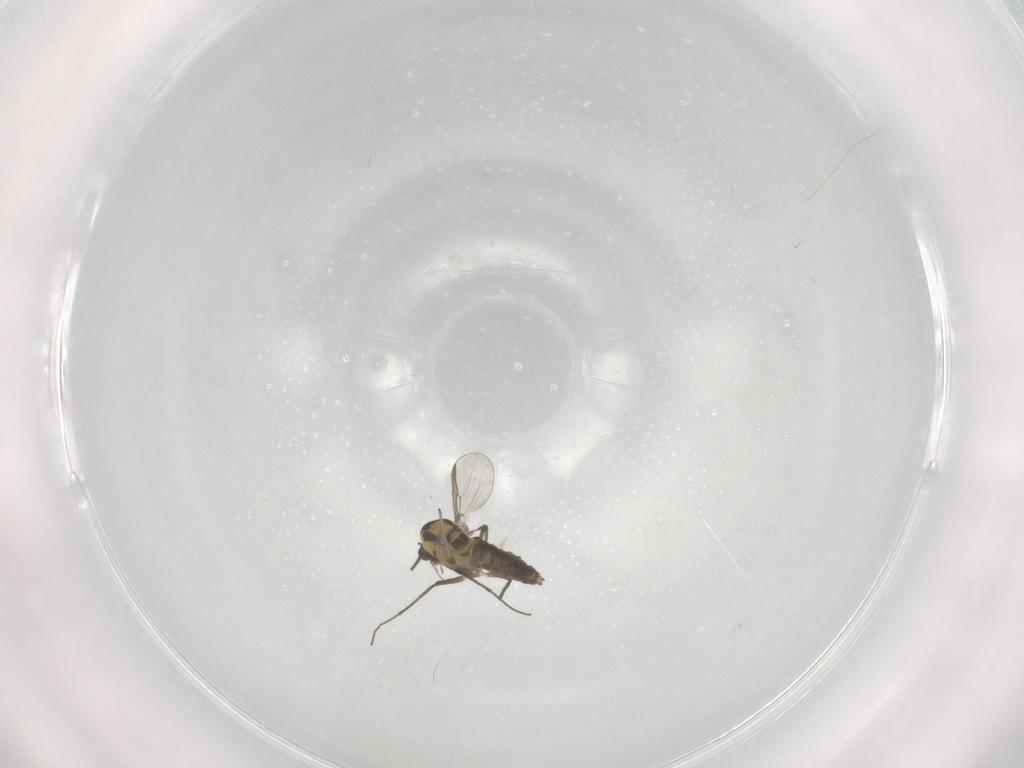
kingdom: Animalia
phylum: Arthropoda
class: Insecta
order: Diptera
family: Chironomidae
